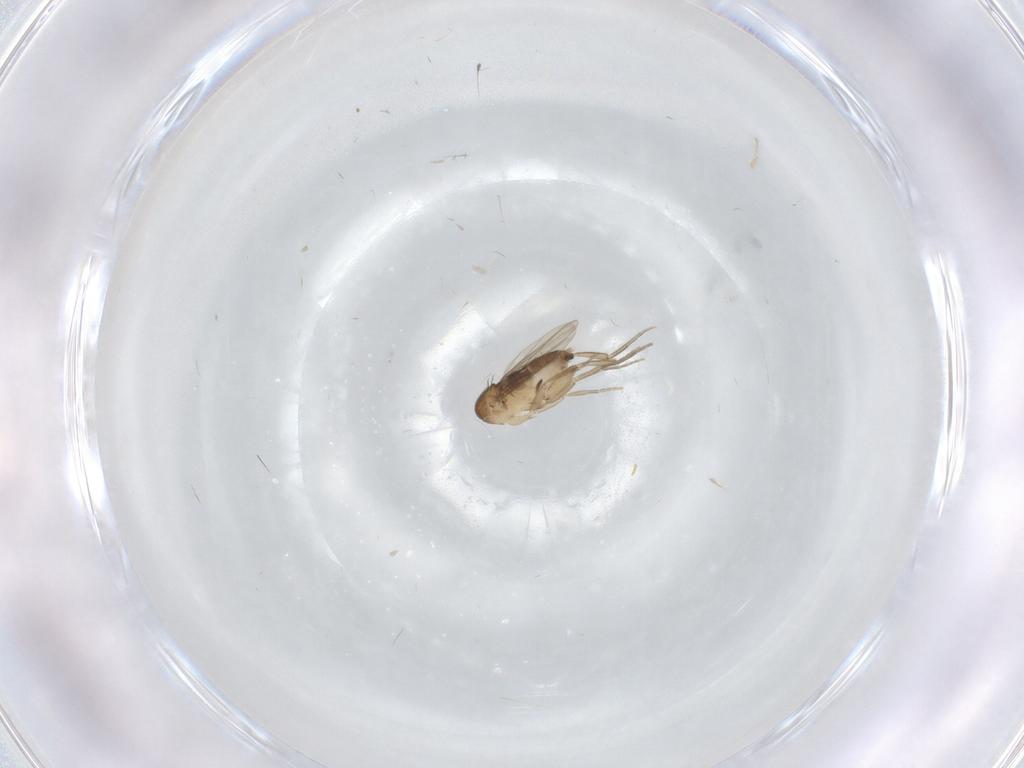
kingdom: Animalia
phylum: Arthropoda
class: Insecta
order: Diptera
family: Phoridae
